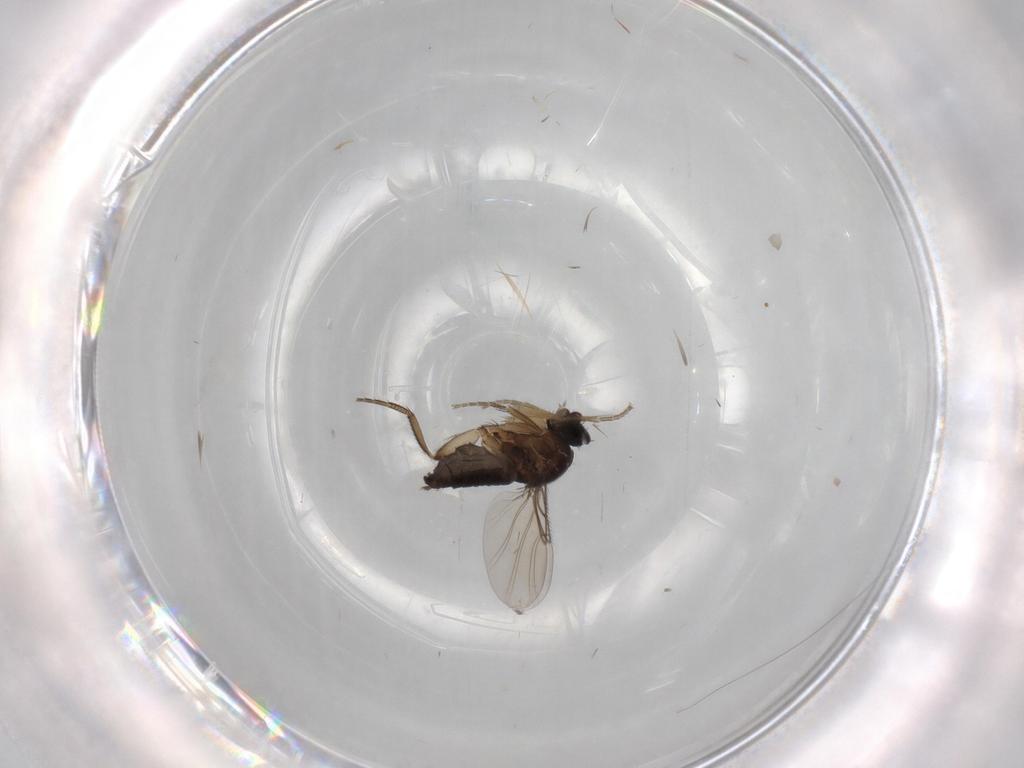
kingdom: Animalia
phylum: Arthropoda
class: Insecta
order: Diptera
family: Phoridae
